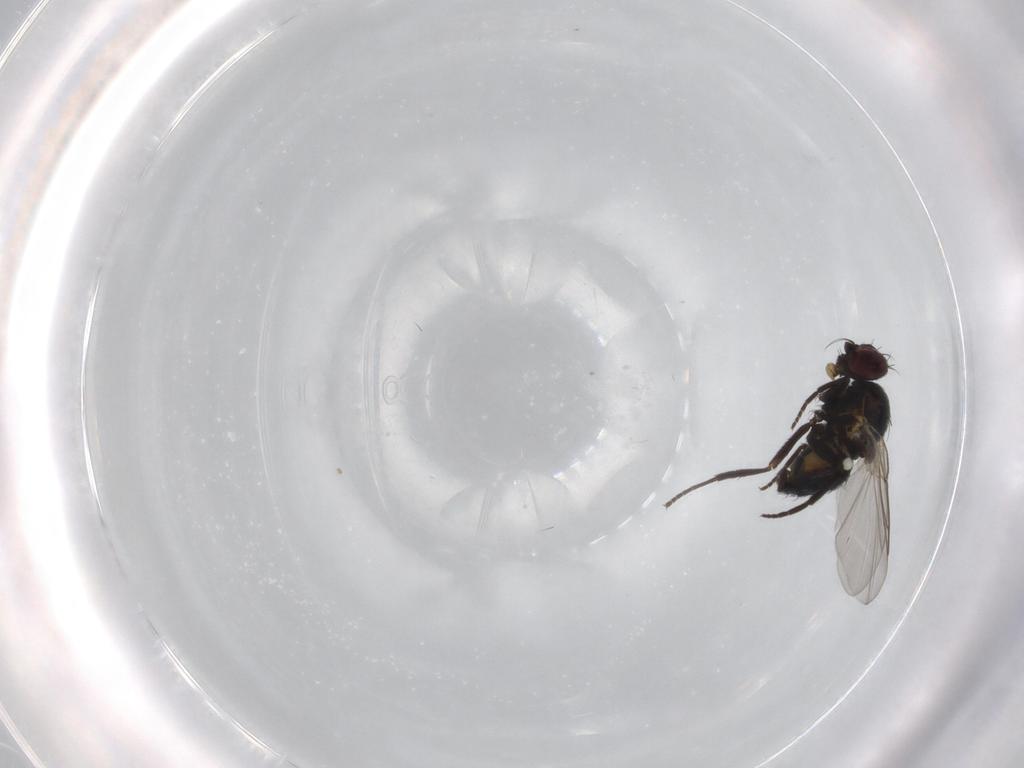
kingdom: Animalia
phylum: Arthropoda
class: Insecta
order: Diptera
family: Agromyzidae
